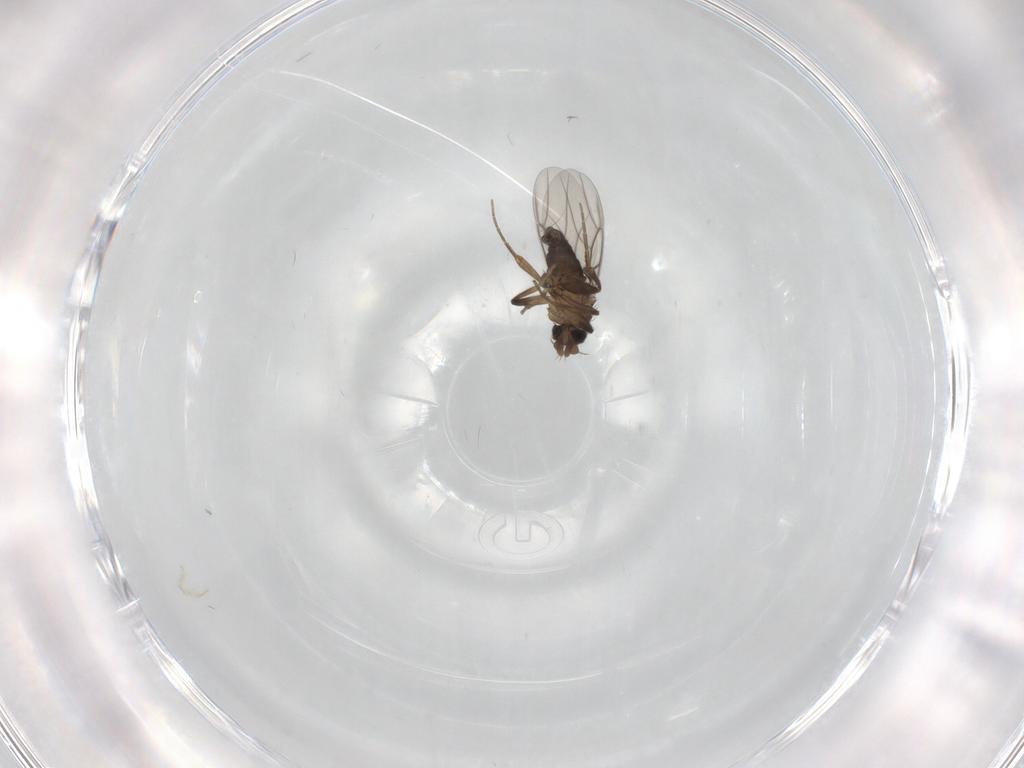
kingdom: Animalia
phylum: Arthropoda
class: Insecta
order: Diptera
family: Phoridae
